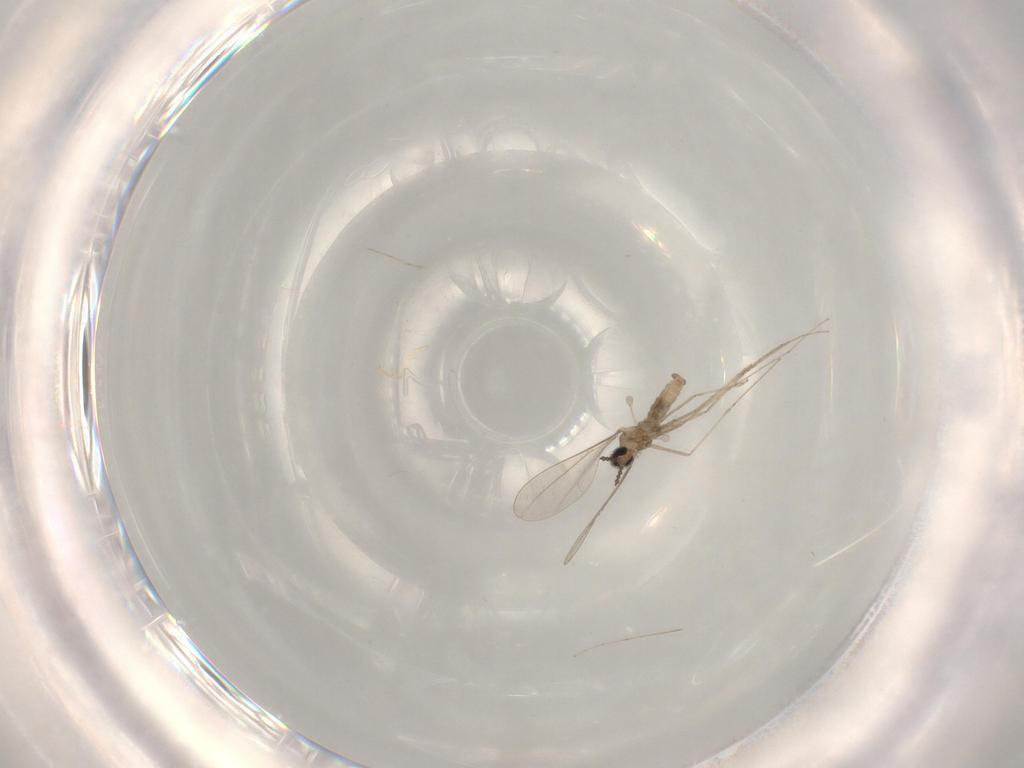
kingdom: Animalia
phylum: Arthropoda
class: Insecta
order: Diptera
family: Cecidomyiidae
